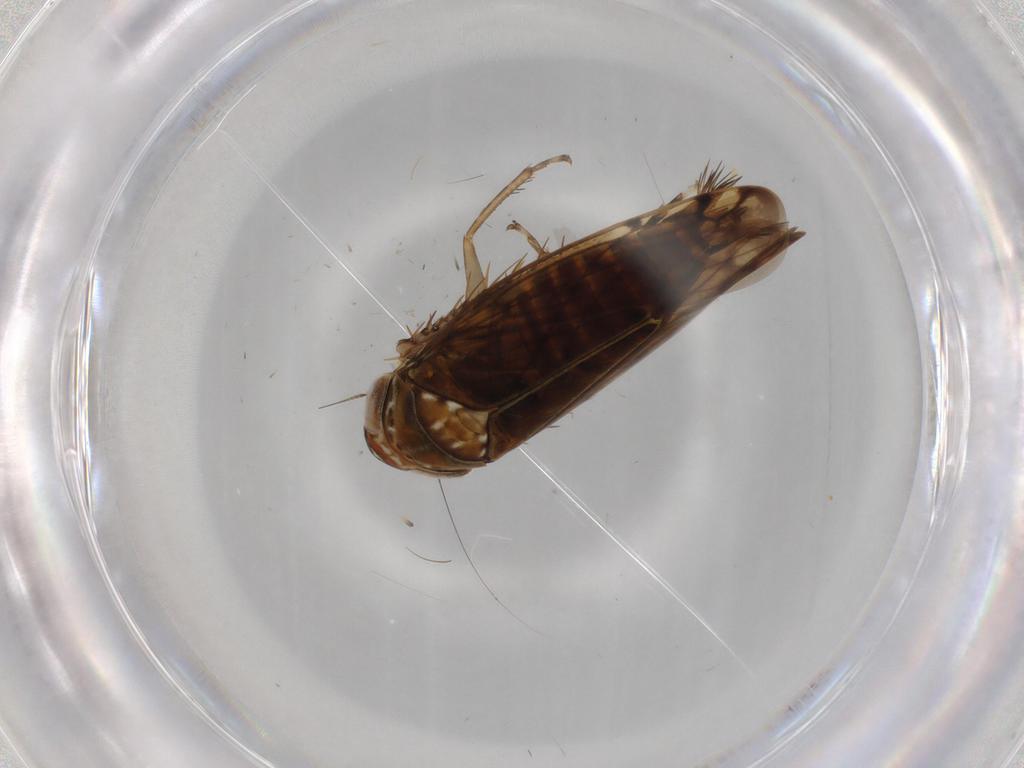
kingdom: Animalia
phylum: Arthropoda
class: Insecta
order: Hemiptera
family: Cicadellidae
